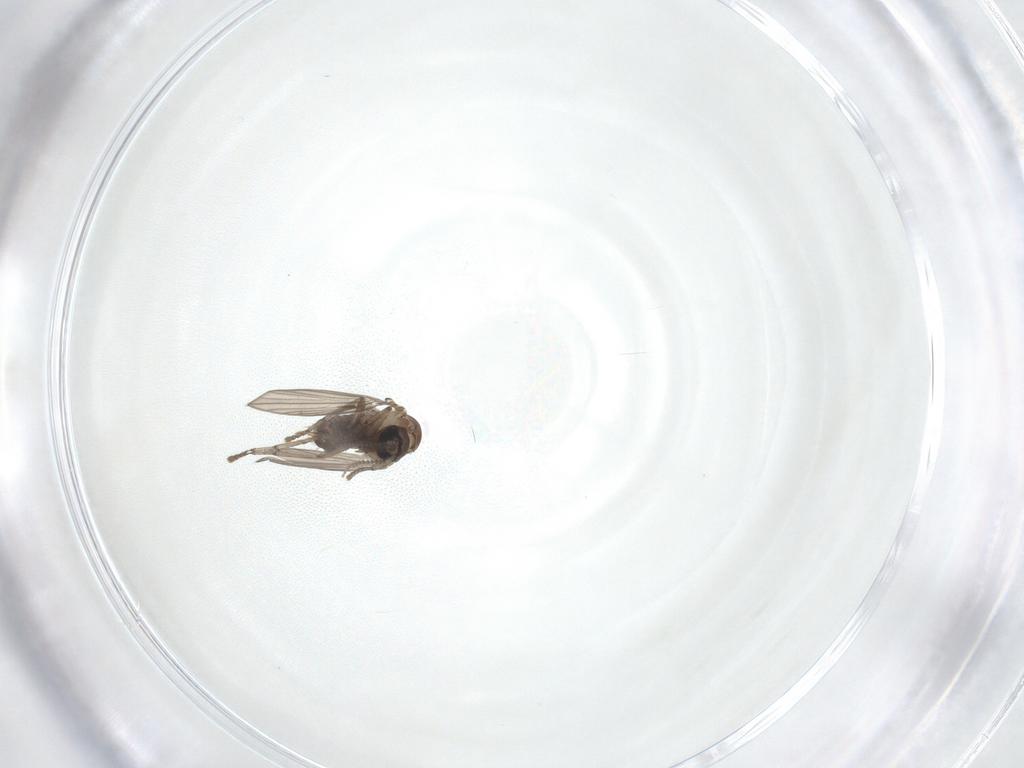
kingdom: Animalia
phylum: Arthropoda
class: Insecta
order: Diptera
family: Psychodidae
